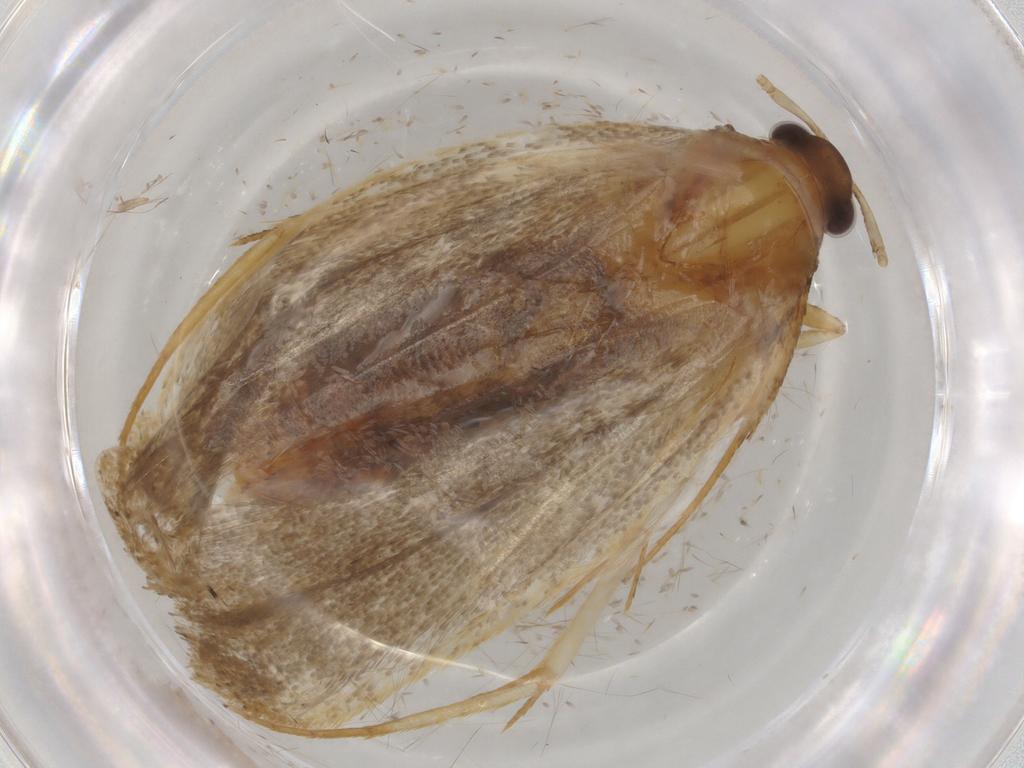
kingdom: Animalia
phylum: Arthropoda
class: Insecta
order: Lepidoptera
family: Lecithoceridae
